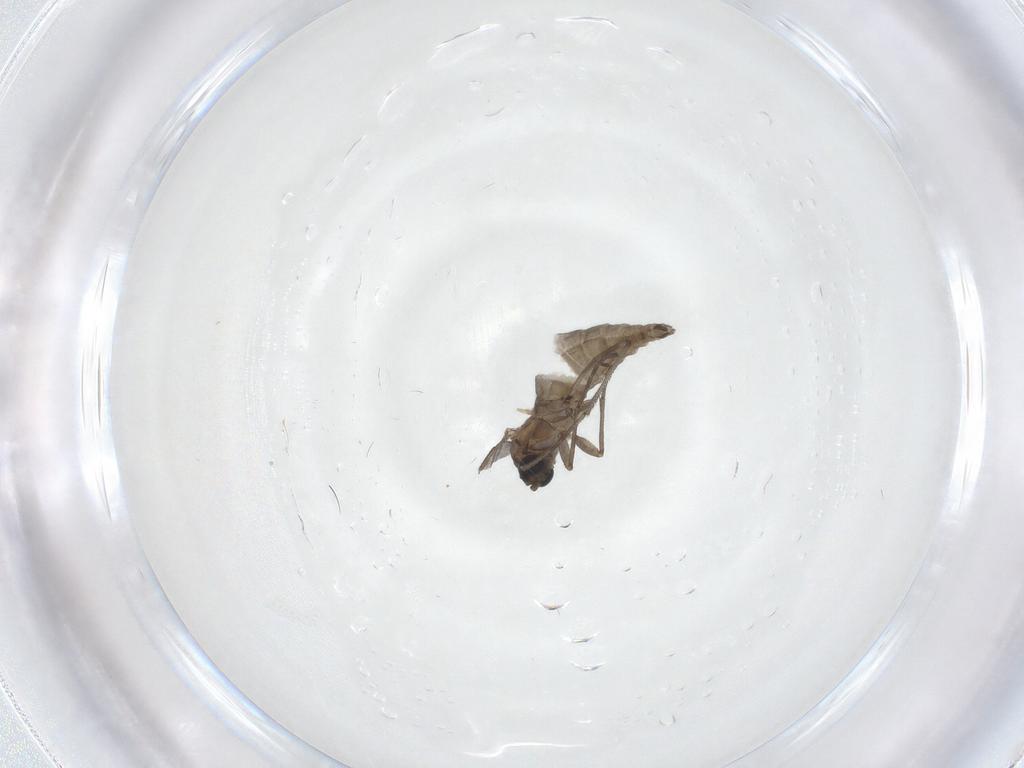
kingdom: Animalia
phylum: Arthropoda
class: Insecta
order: Diptera
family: Sciaridae
